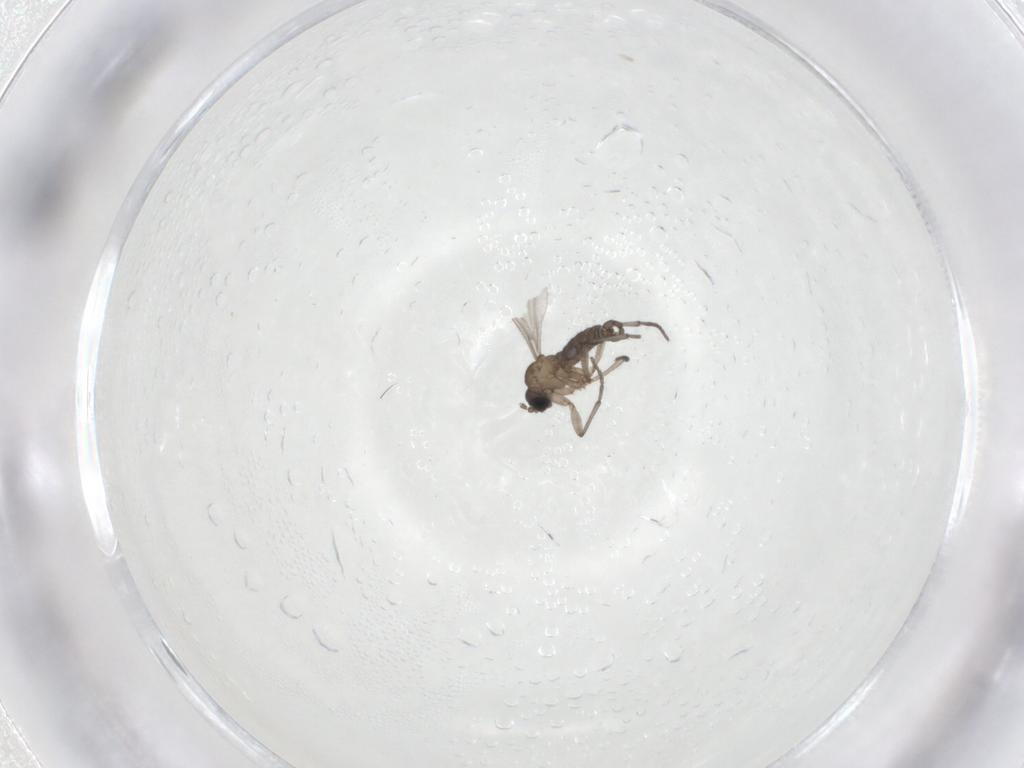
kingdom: Animalia
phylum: Arthropoda
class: Insecta
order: Diptera
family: Sciaridae
